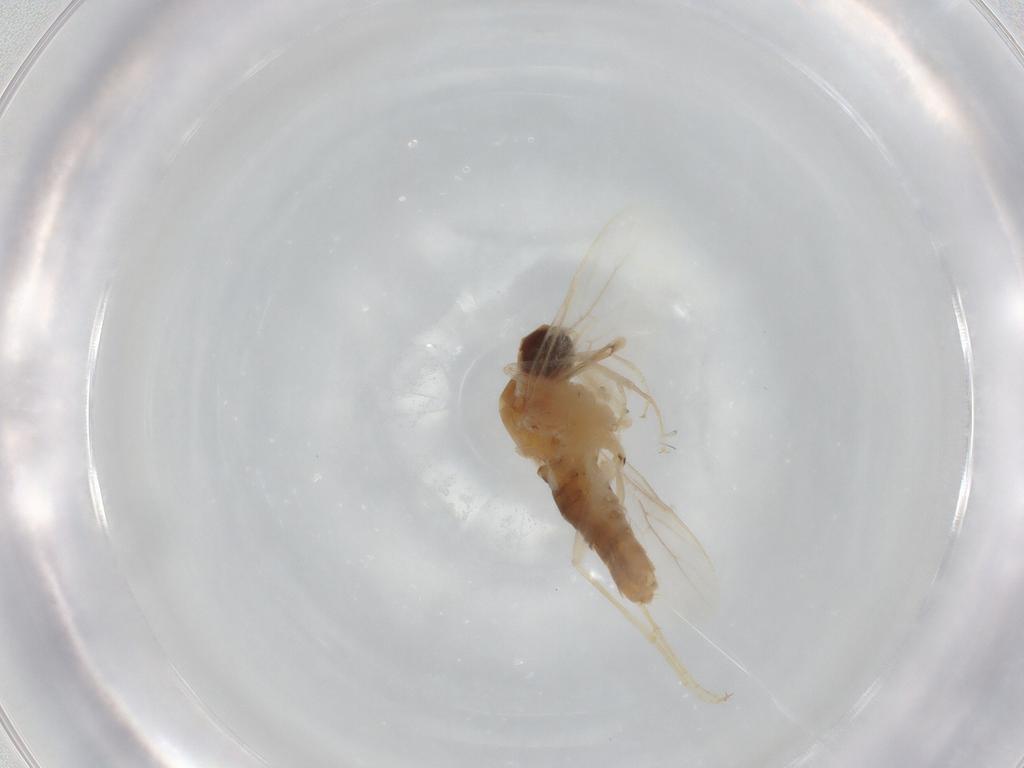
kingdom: Animalia
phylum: Arthropoda
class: Insecta
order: Diptera
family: Scenopinidae
